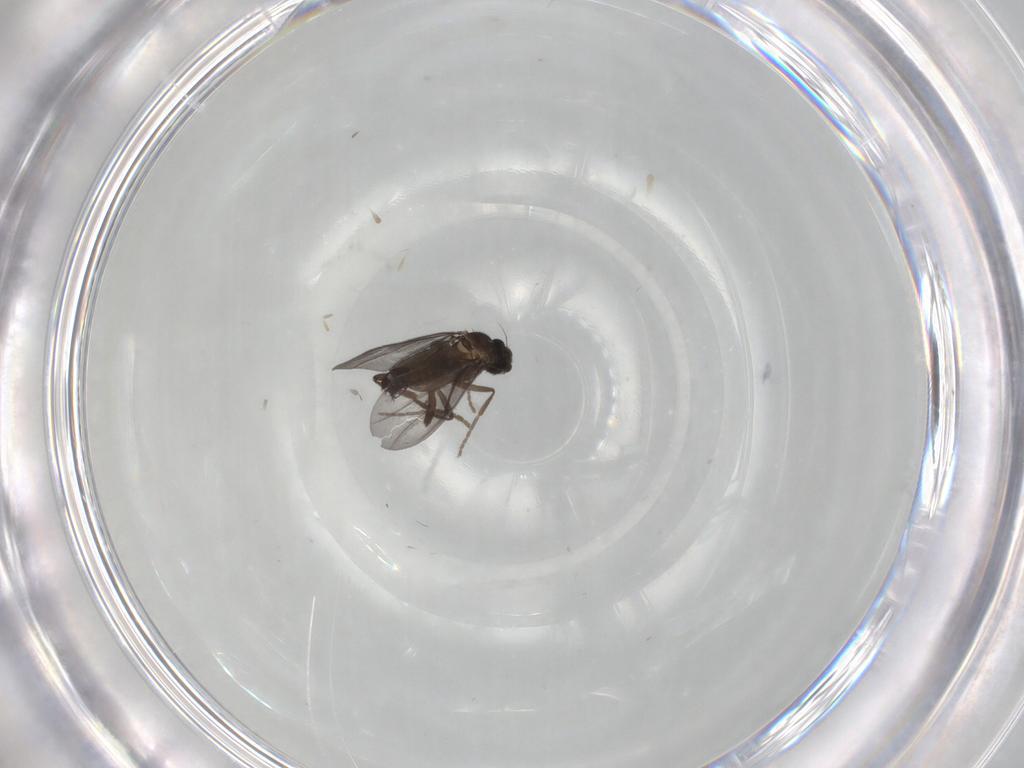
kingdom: Animalia
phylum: Arthropoda
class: Insecta
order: Diptera
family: Phoridae
